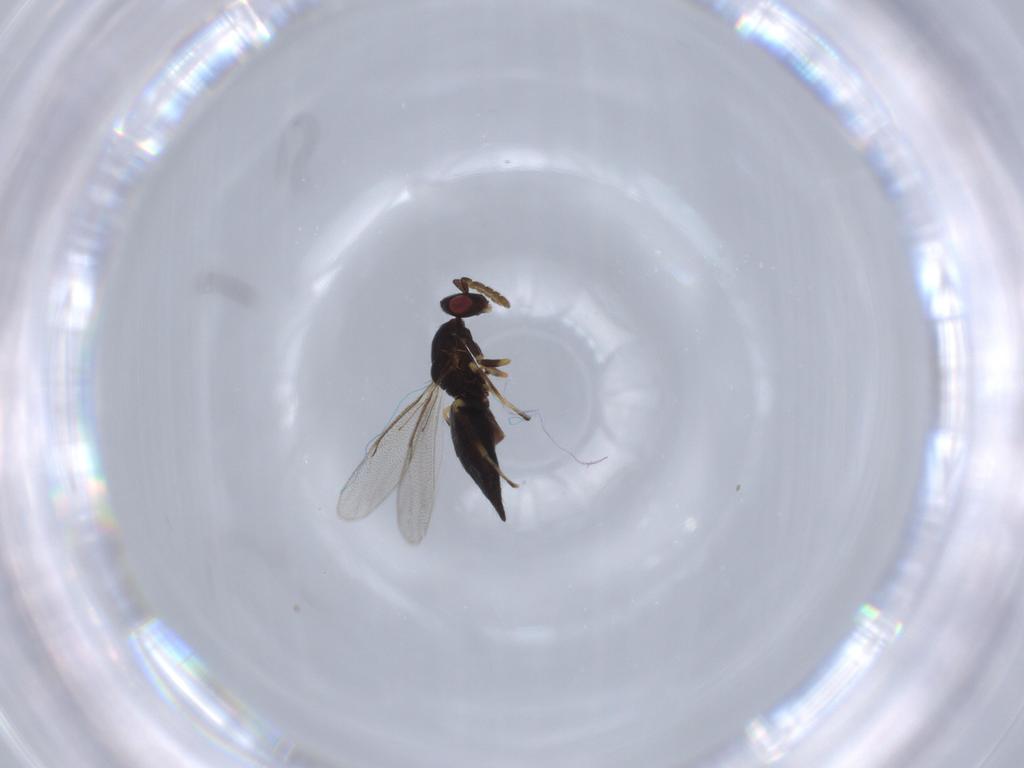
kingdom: Animalia
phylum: Arthropoda
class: Insecta
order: Hymenoptera
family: Eulophidae
